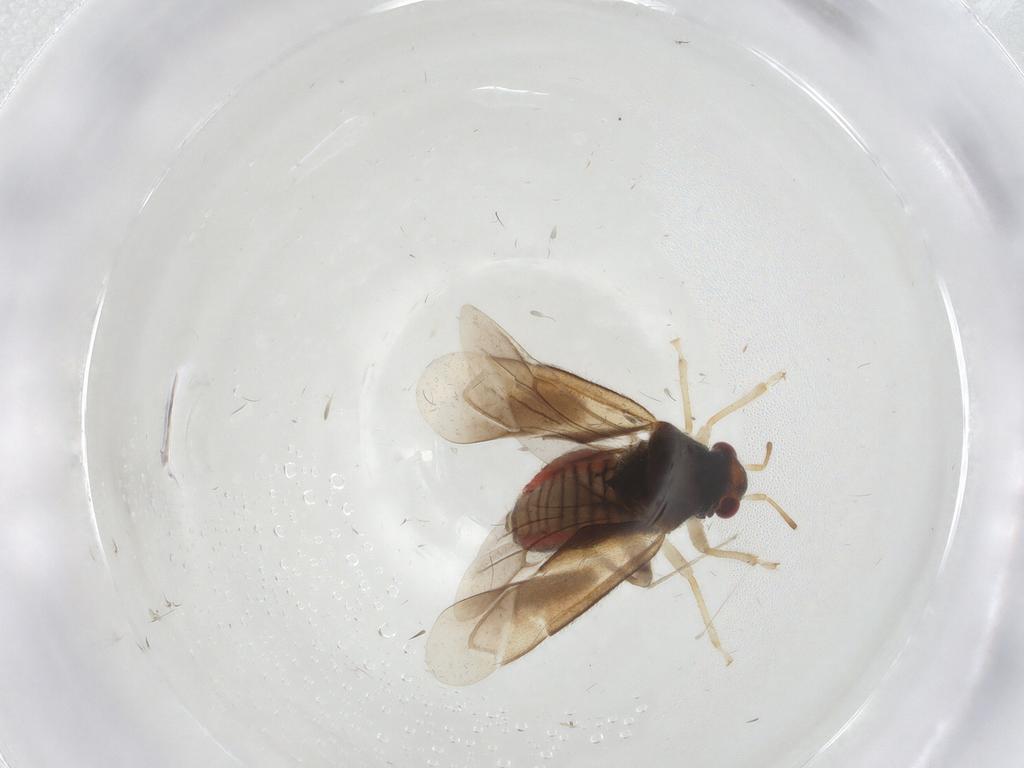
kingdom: Animalia
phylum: Arthropoda
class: Insecta
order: Hemiptera
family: Miridae
